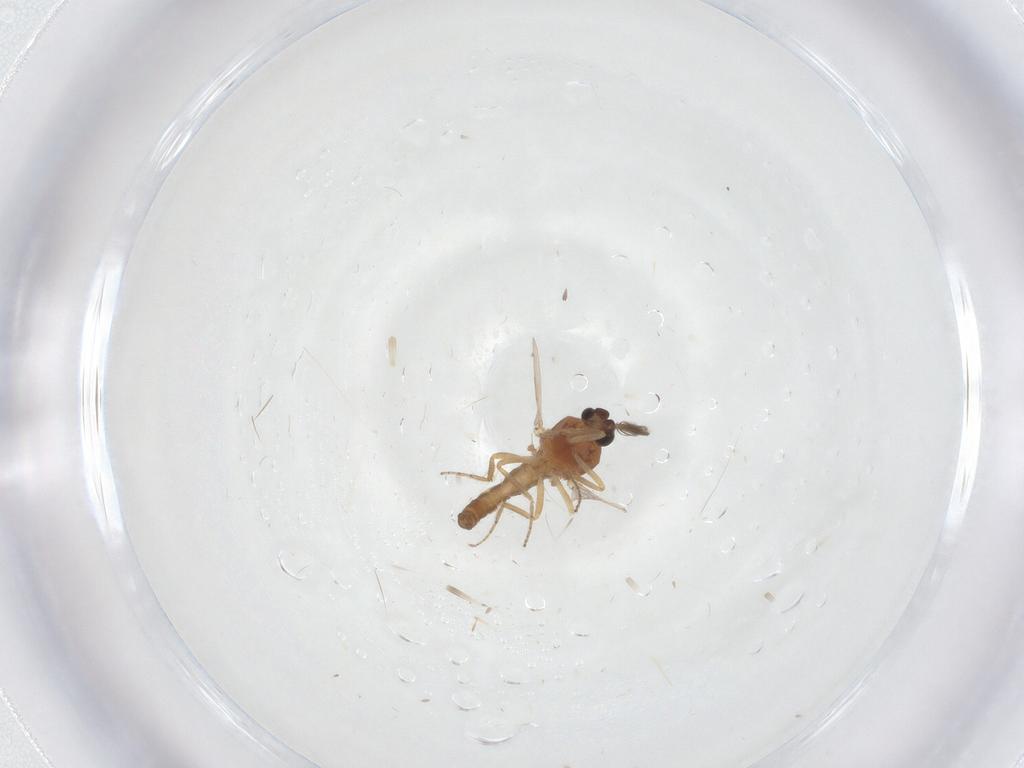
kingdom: Animalia
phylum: Arthropoda
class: Insecta
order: Diptera
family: Ceratopogonidae
